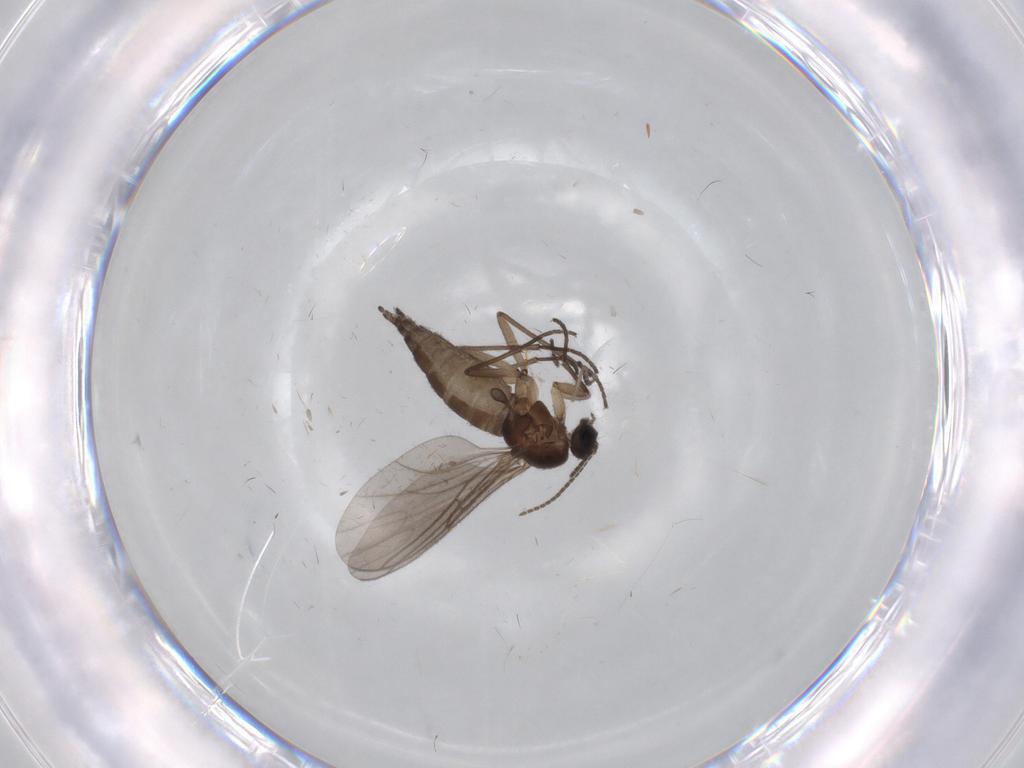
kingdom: Animalia
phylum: Arthropoda
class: Insecta
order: Diptera
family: Sciaridae
